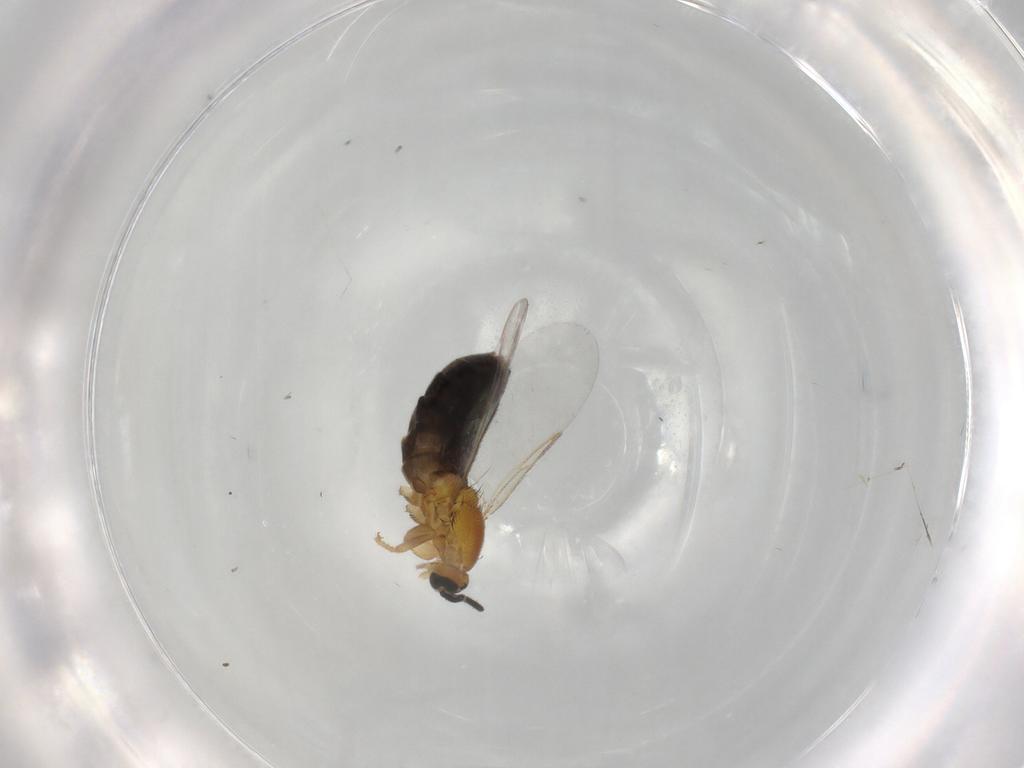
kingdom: Animalia
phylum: Arthropoda
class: Insecta
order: Diptera
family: Scatopsidae
